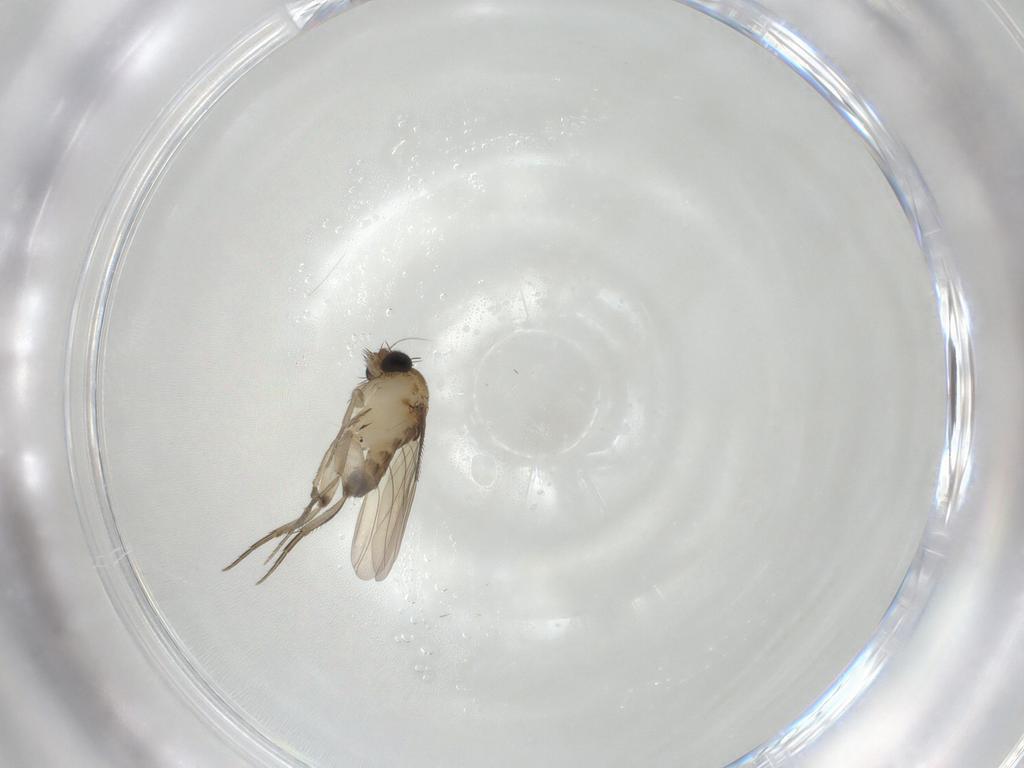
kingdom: Animalia
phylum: Arthropoda
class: Insecta
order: Diptera
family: Phoridae
